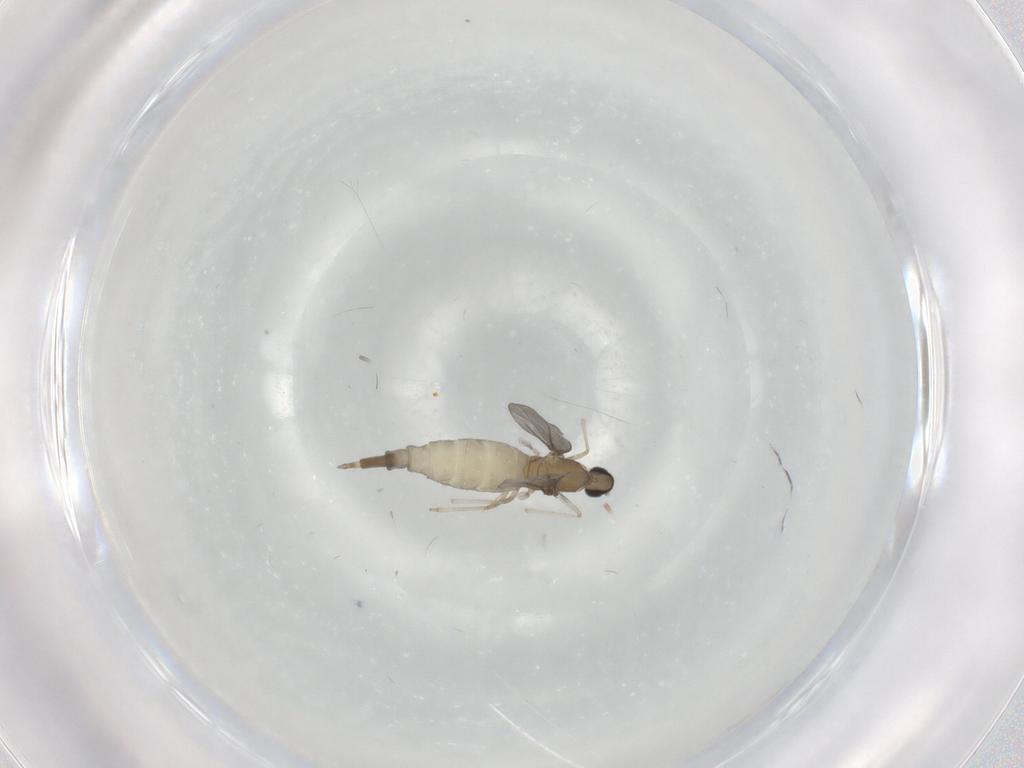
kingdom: Animalia
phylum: Arthropoda
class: Insecta
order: Diptera
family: Cecidomyiidae
